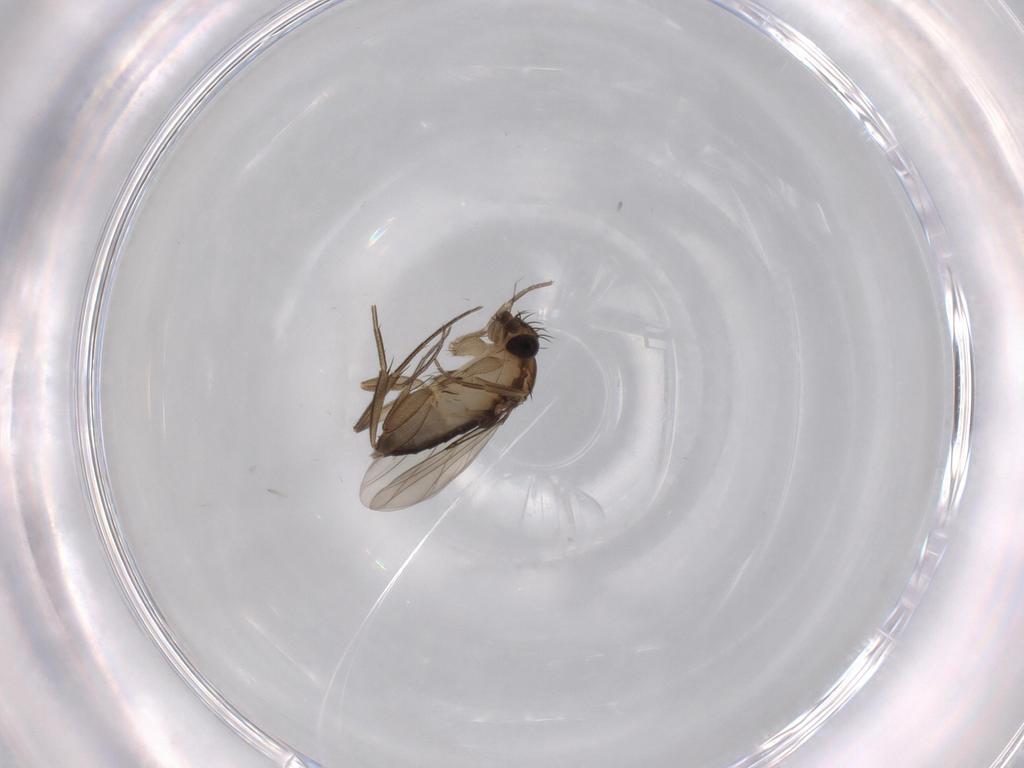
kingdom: Animalia
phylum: Arthropoda
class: Insecta
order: Diptera
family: Phoridae
